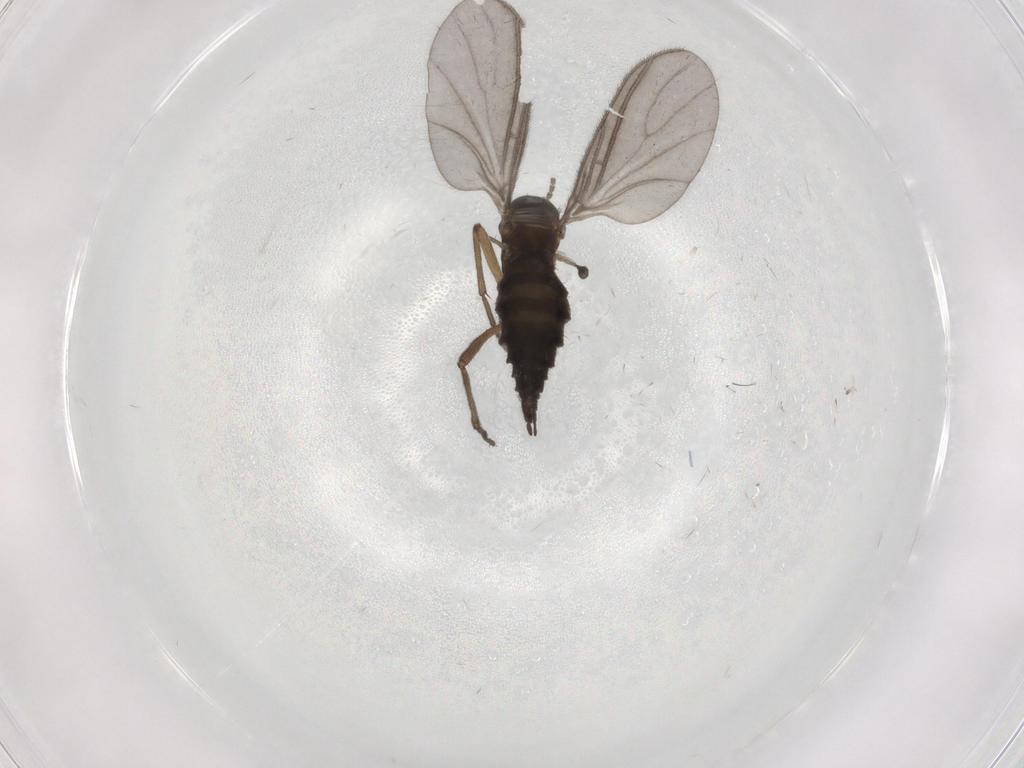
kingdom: Animalia
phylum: Arthropoda
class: Insecta
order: Diptera
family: Sciaridae
